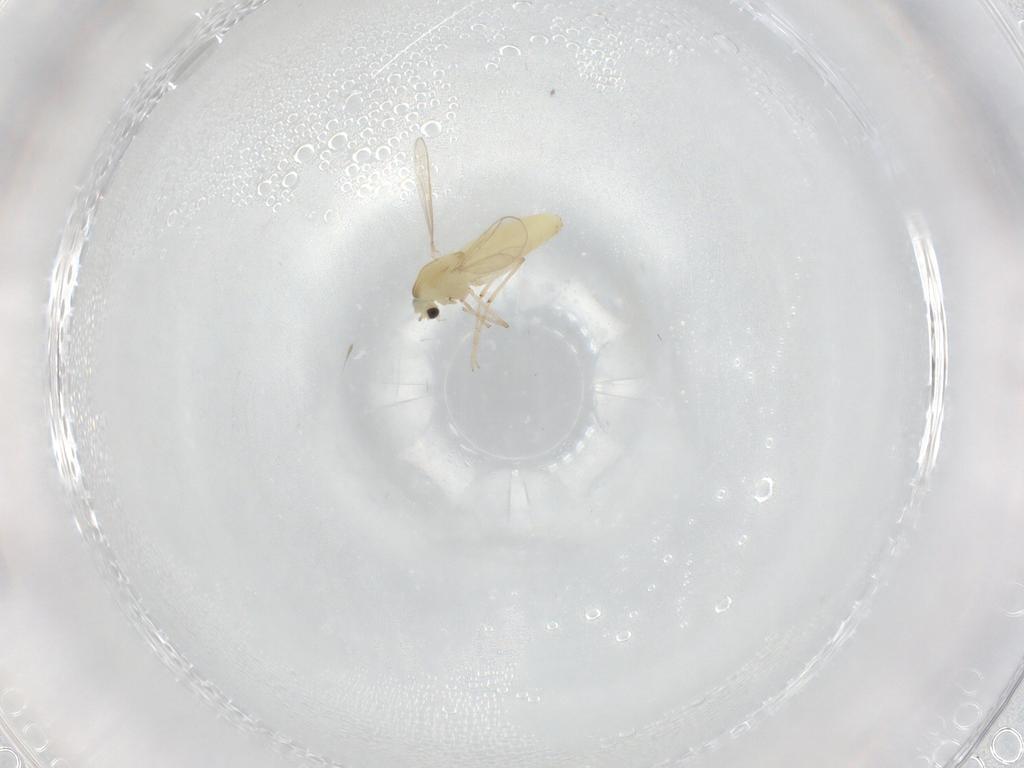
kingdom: Animalia
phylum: Arthropoda
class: Insecta
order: Diptera
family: Chironomidae
